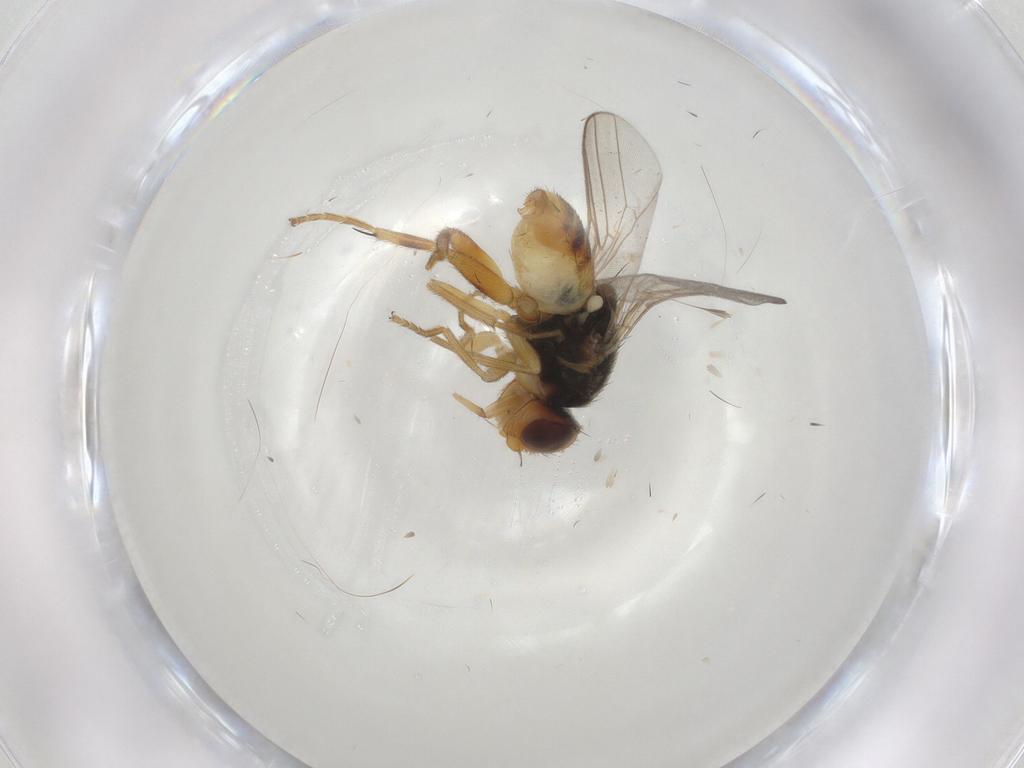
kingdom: Animalia
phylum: Arthropoda
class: Insecta
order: Diptera
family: Chloropidae
